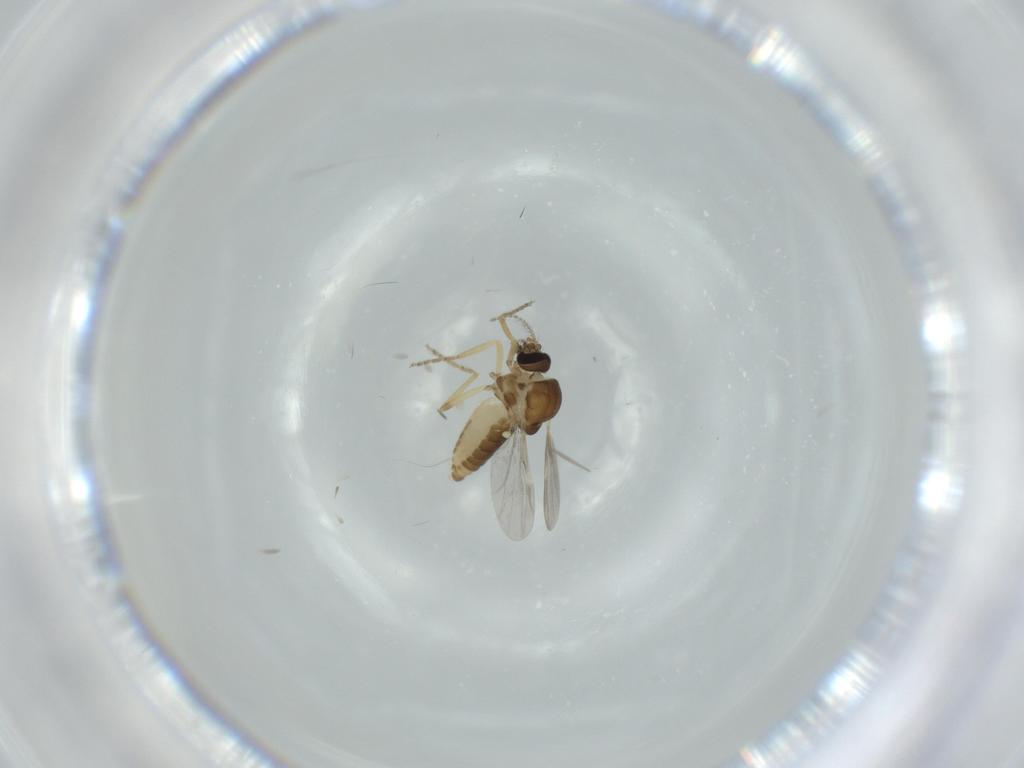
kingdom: Animalia
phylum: Arthropoda
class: Insecta
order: Diptera
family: Ceratopogonidae
